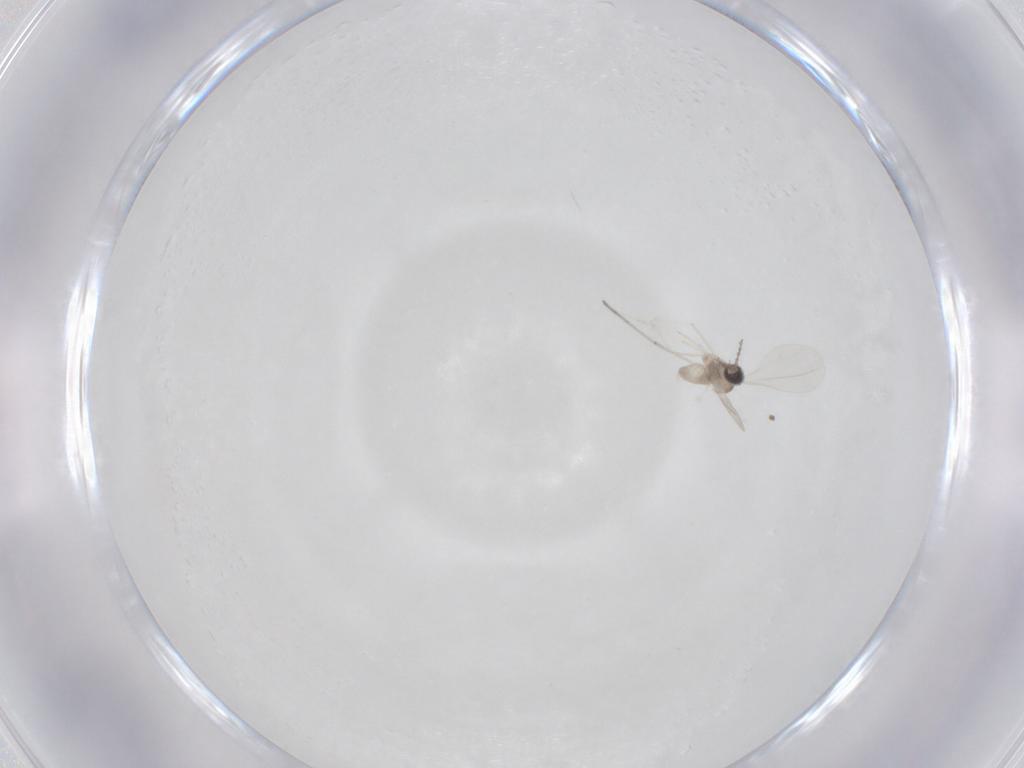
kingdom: Animalia
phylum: Arthropoda
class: Insecta
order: Diptera
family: Cecidomyiidae
